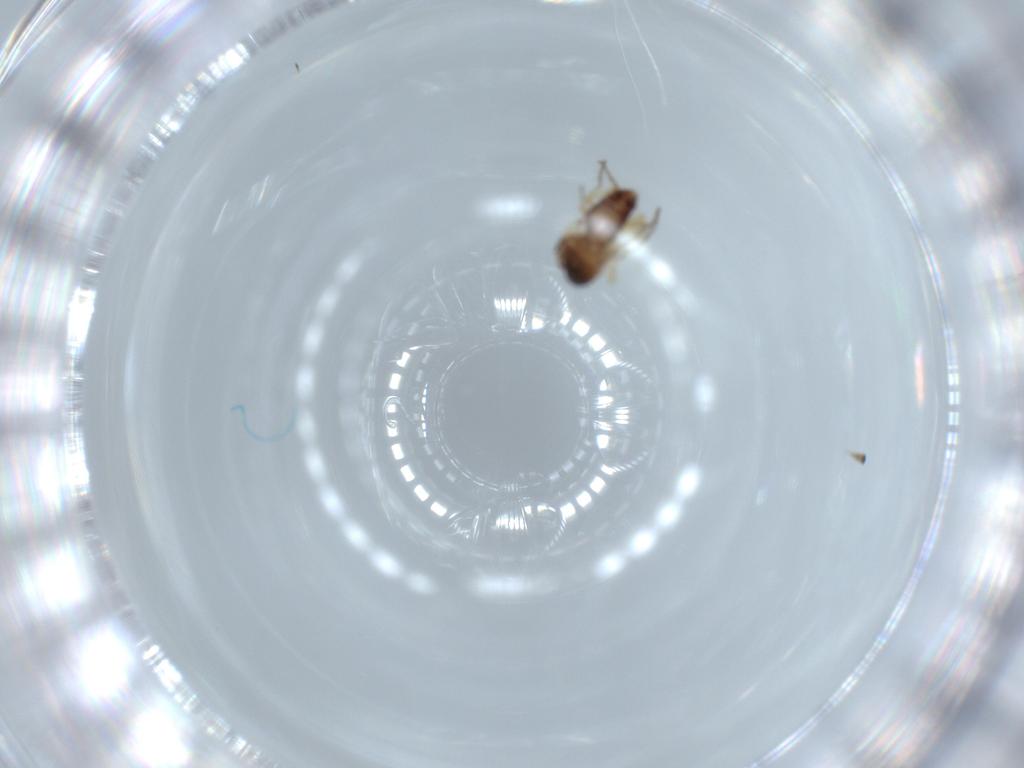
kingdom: Animalia
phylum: Arthropoda
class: Insecta
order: Diptera
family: Ceratopogonidae
